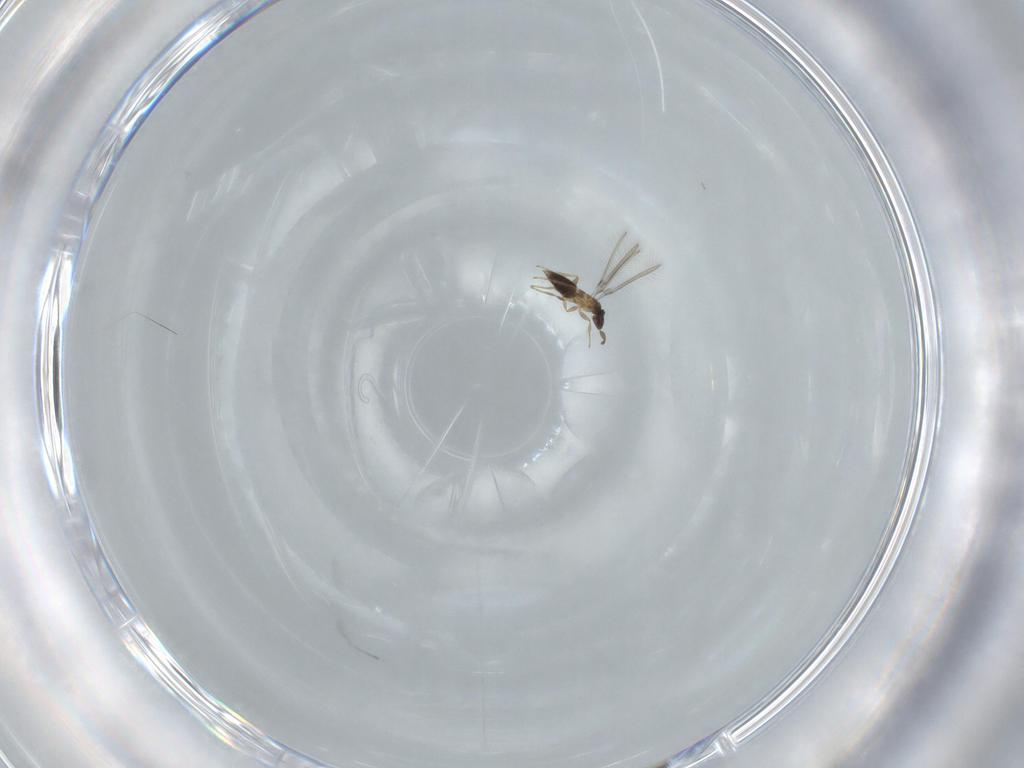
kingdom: Animalia
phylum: Arthropoda
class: Insecta
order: Hymenoptera
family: Mymaridae
